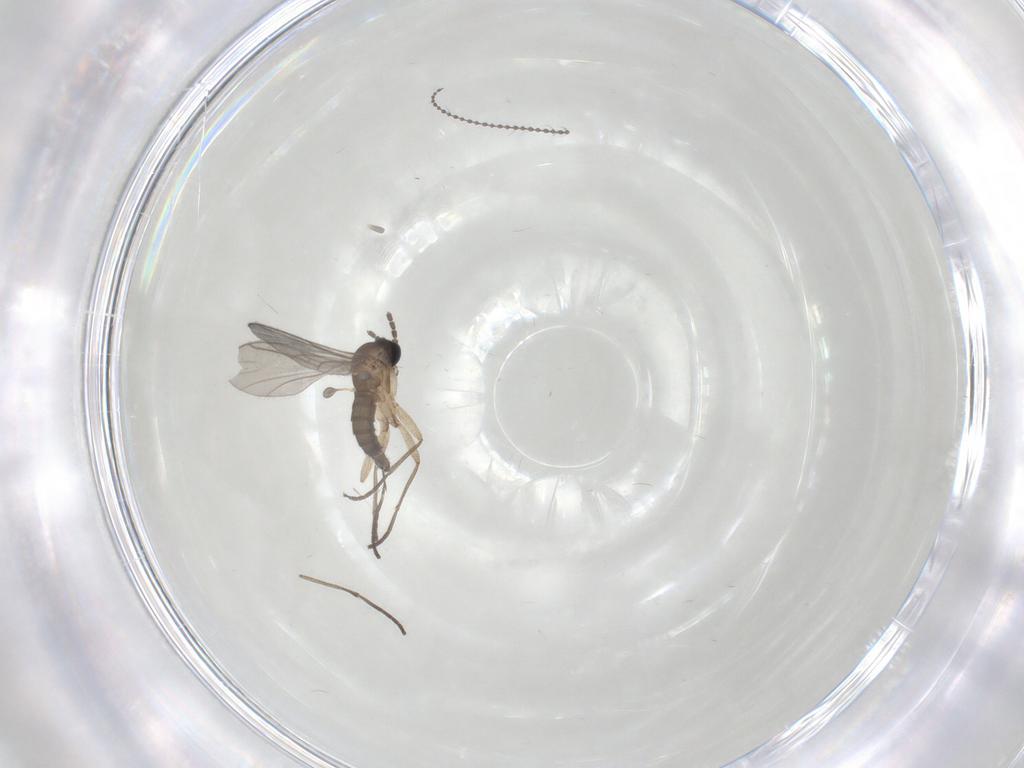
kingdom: Animalia
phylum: Arthropoda
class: Insecta
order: Diptera
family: Sciaridae
